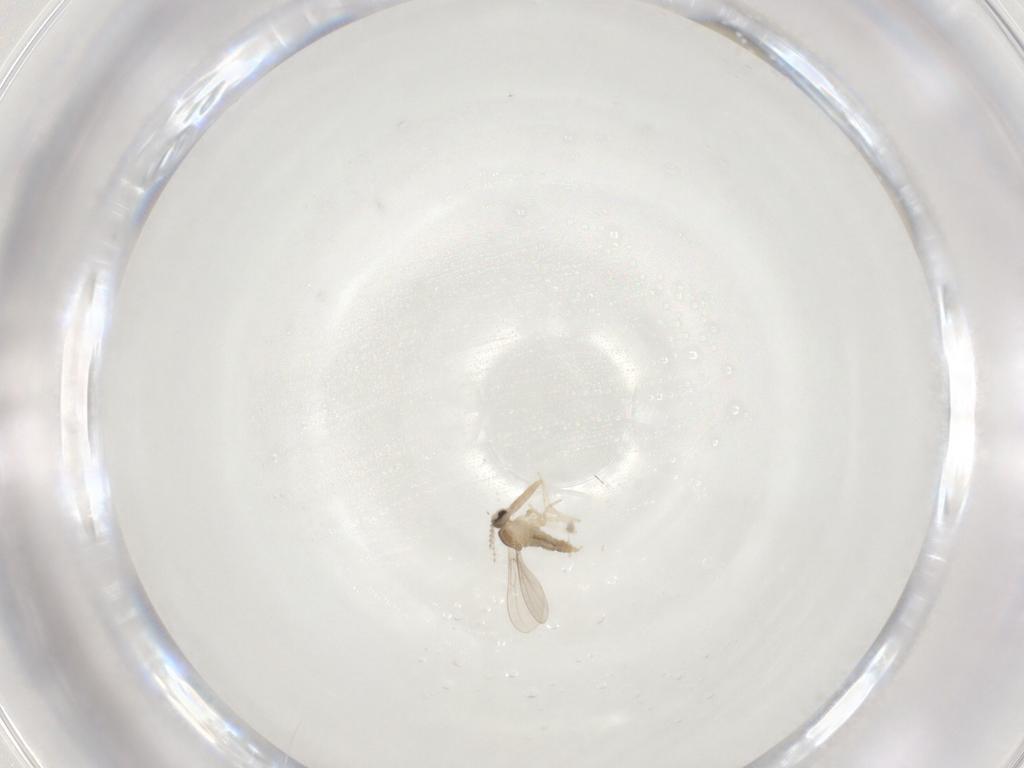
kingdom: Animalia
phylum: Arthropoda
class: Insecta
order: Diptera
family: Cecidomyiidae
